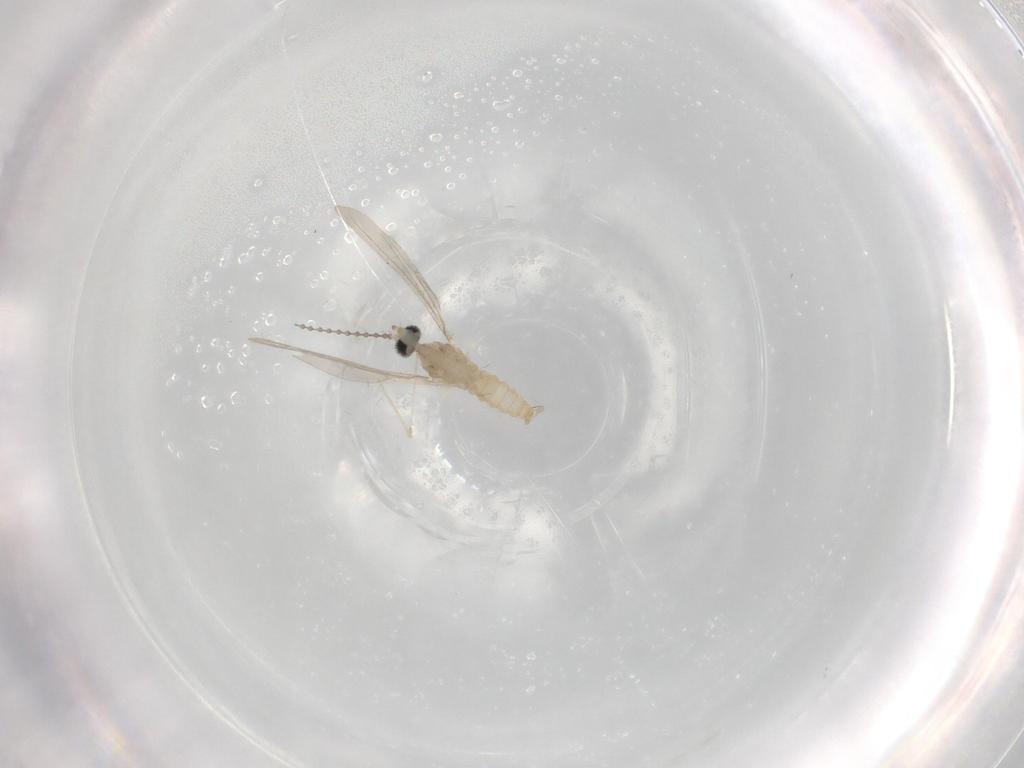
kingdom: Animalia
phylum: Arthropoda
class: Insecta
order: Diptera
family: Cecidomyiidae
